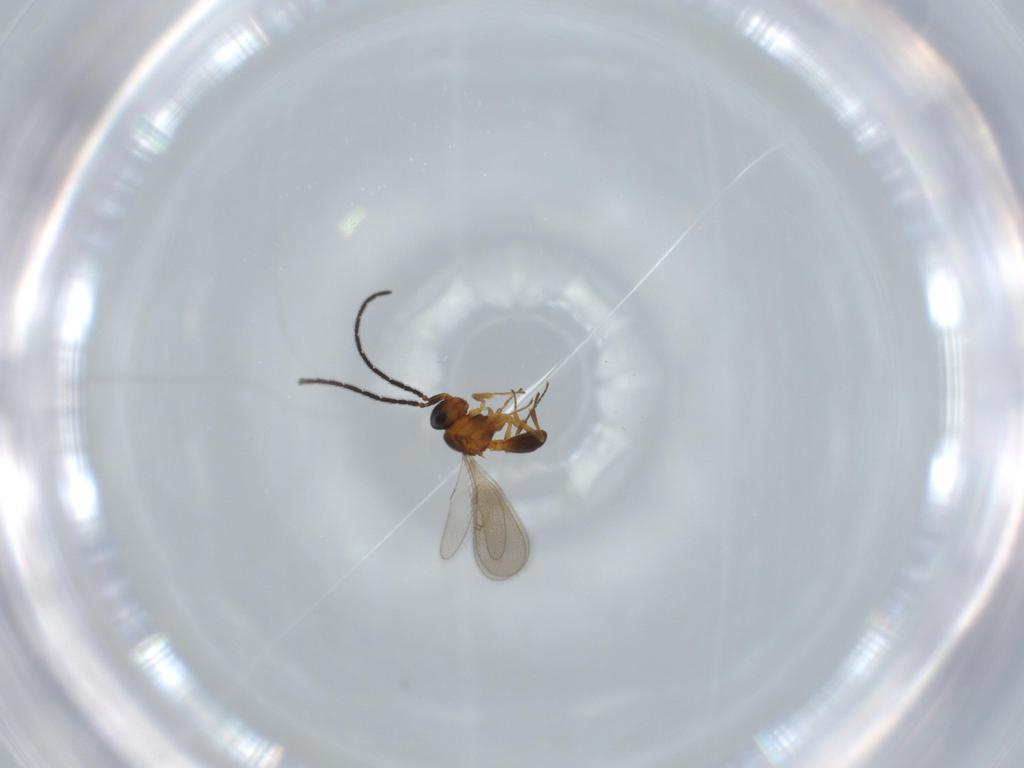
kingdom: Animalia
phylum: Arthropoda
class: Insecta
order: Hymenoptera
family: Scelionidae
